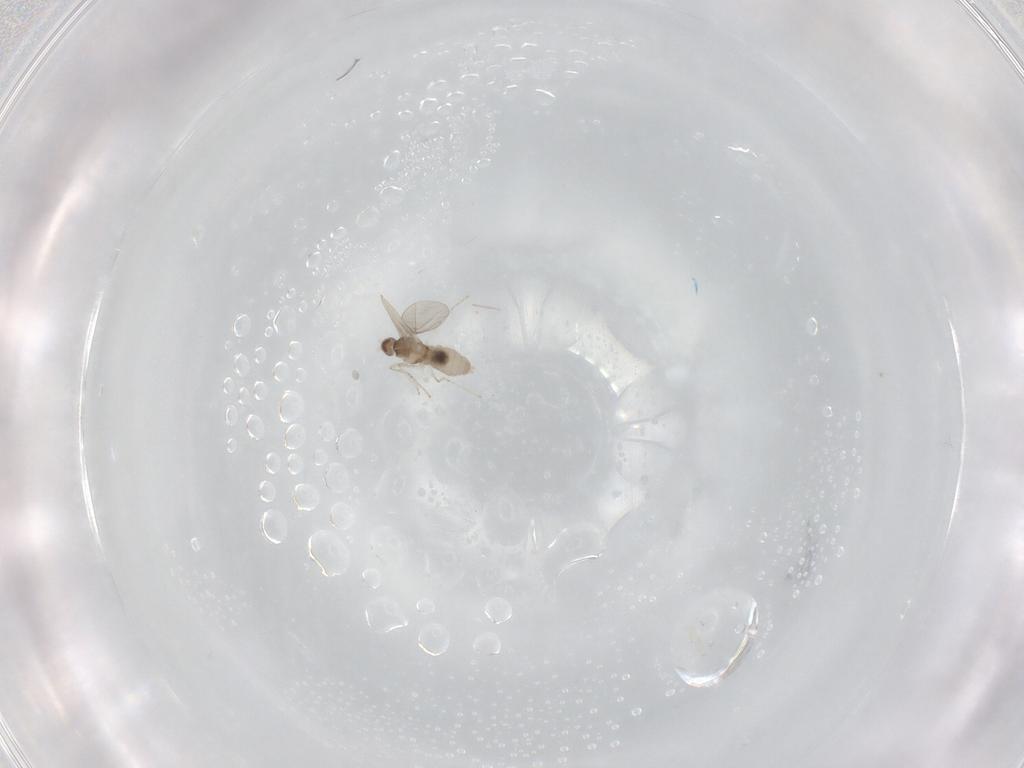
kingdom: Animalia
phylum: Arthropoda
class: Insecta
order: Diptera
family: Cecidomyiidae
